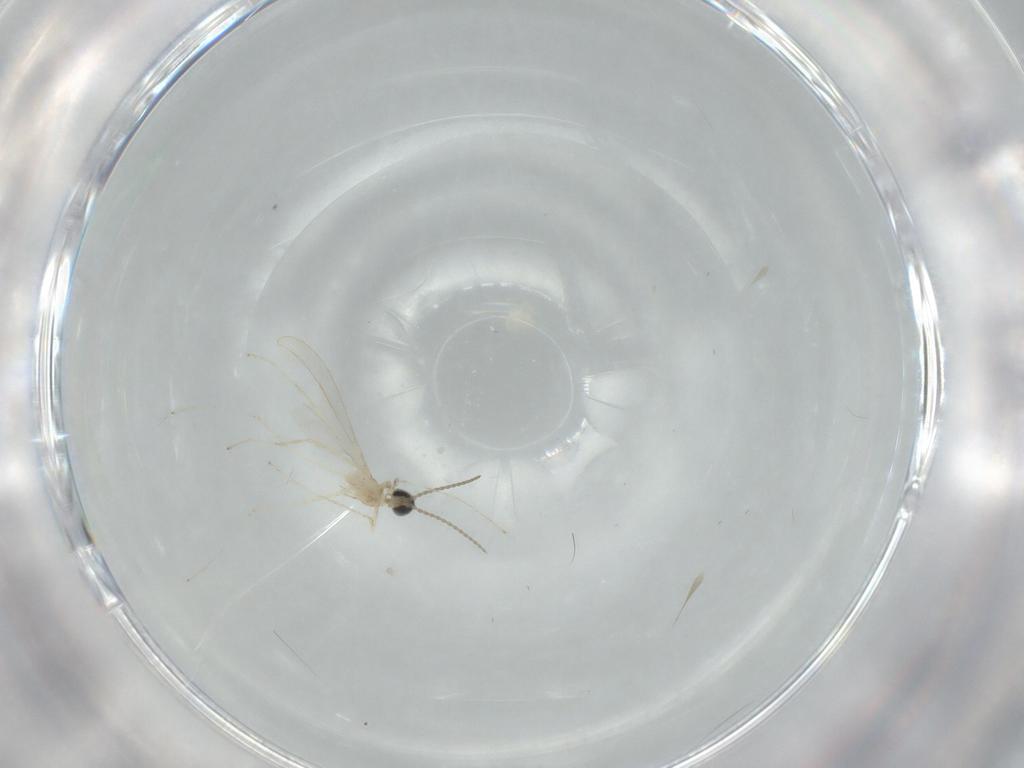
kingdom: Animalia
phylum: Arthropoda
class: Insecta
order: Diptera
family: Cecidomyiidae
